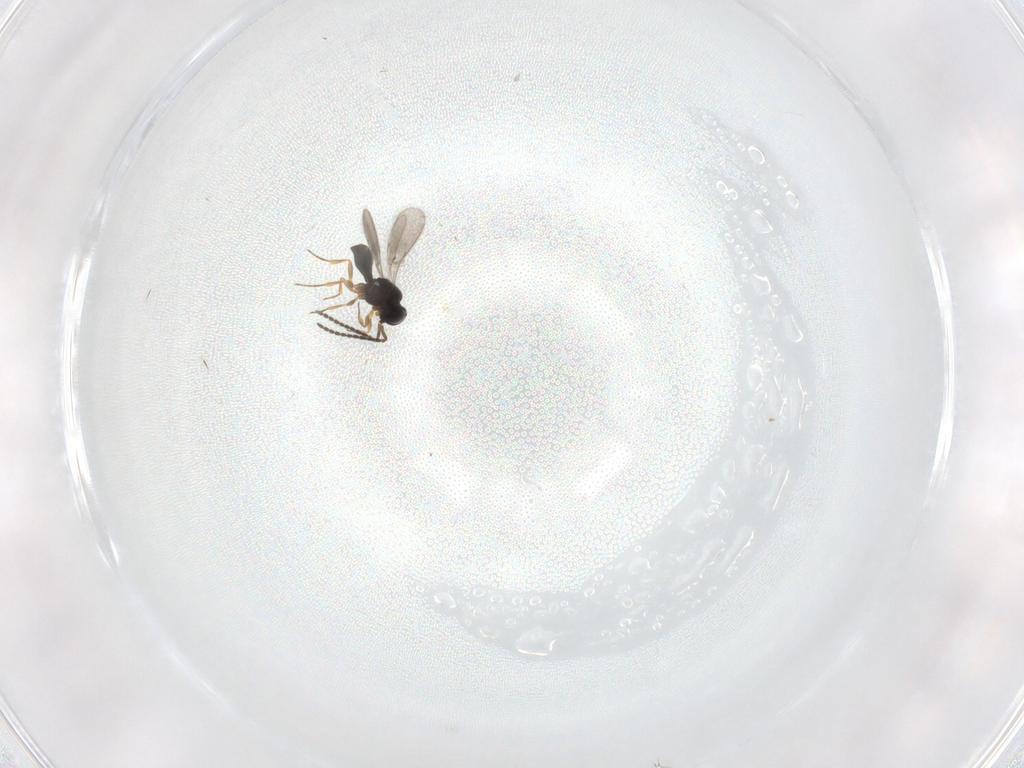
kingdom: Animalia
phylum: Arthropoda
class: Insecta
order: Hymenoptera
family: Scelionidae
